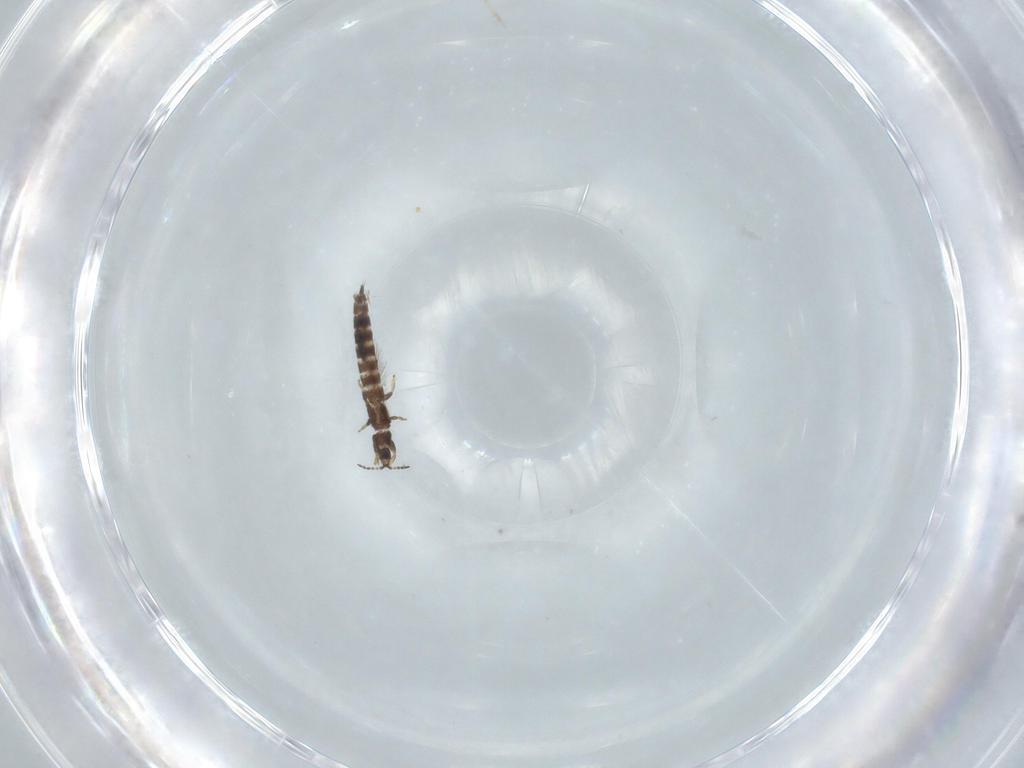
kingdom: Animalia
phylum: Arthropoda
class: Insecta
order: Thysanoptera
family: Phlaeothripidae
